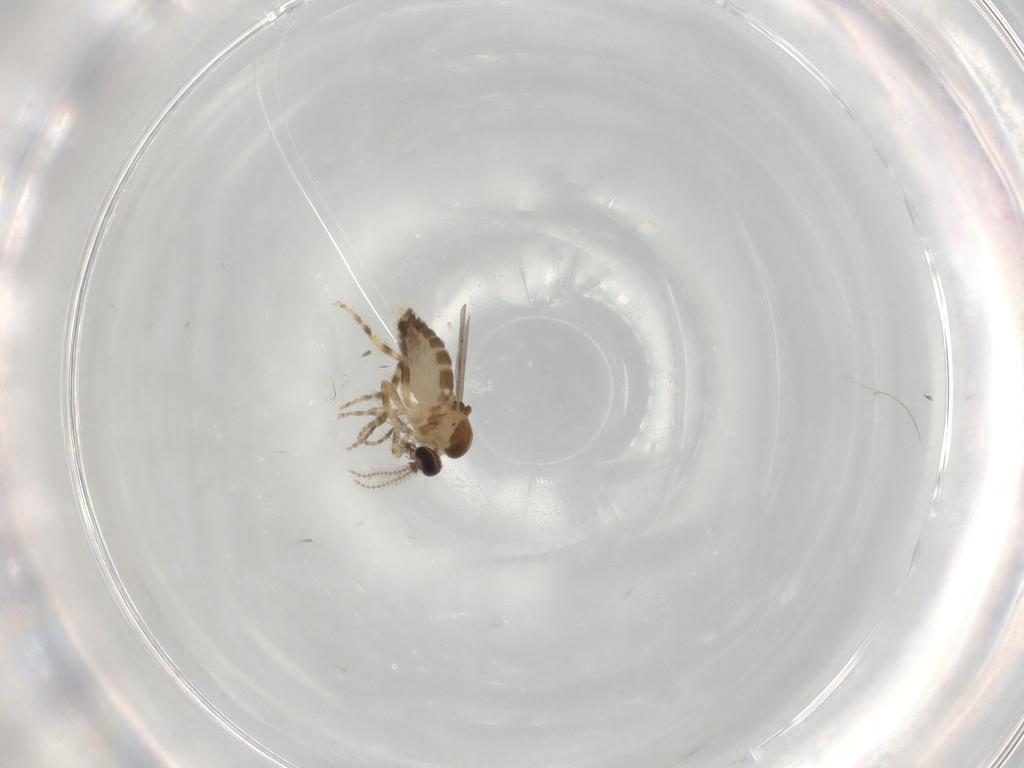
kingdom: Animalia
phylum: Arthropoda
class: Insecta
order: Diptera
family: Ceratopogonidae
